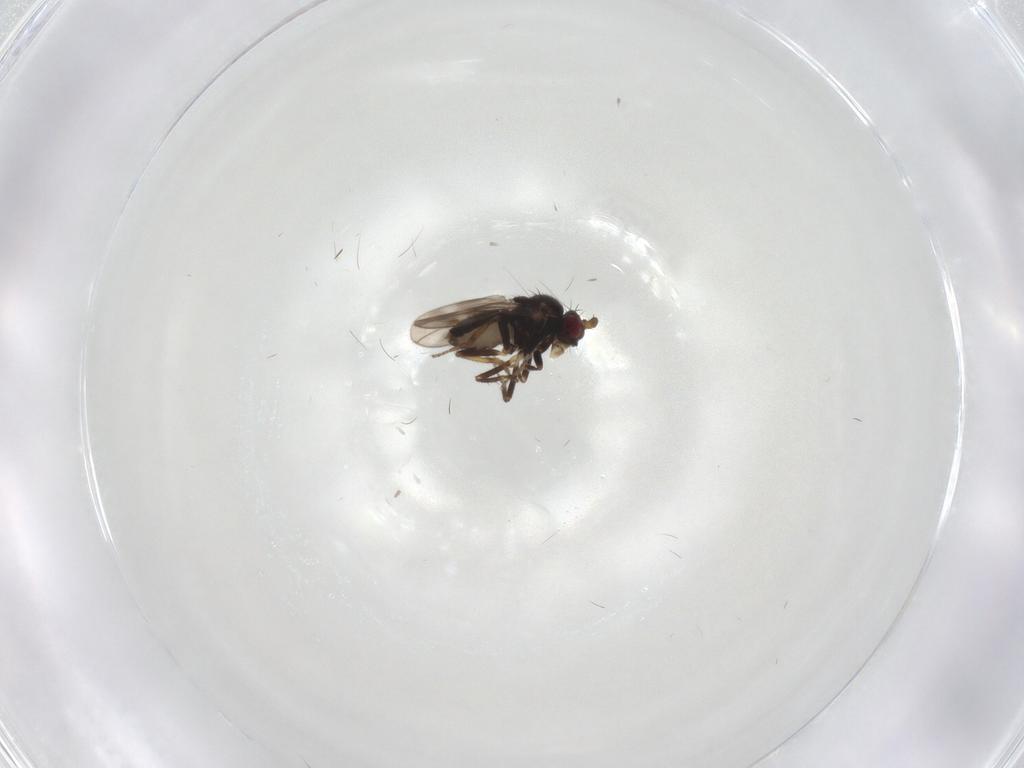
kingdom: Animalia
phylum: Arthropoda
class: Insecta
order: Diptera
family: Sphaeroceridae
